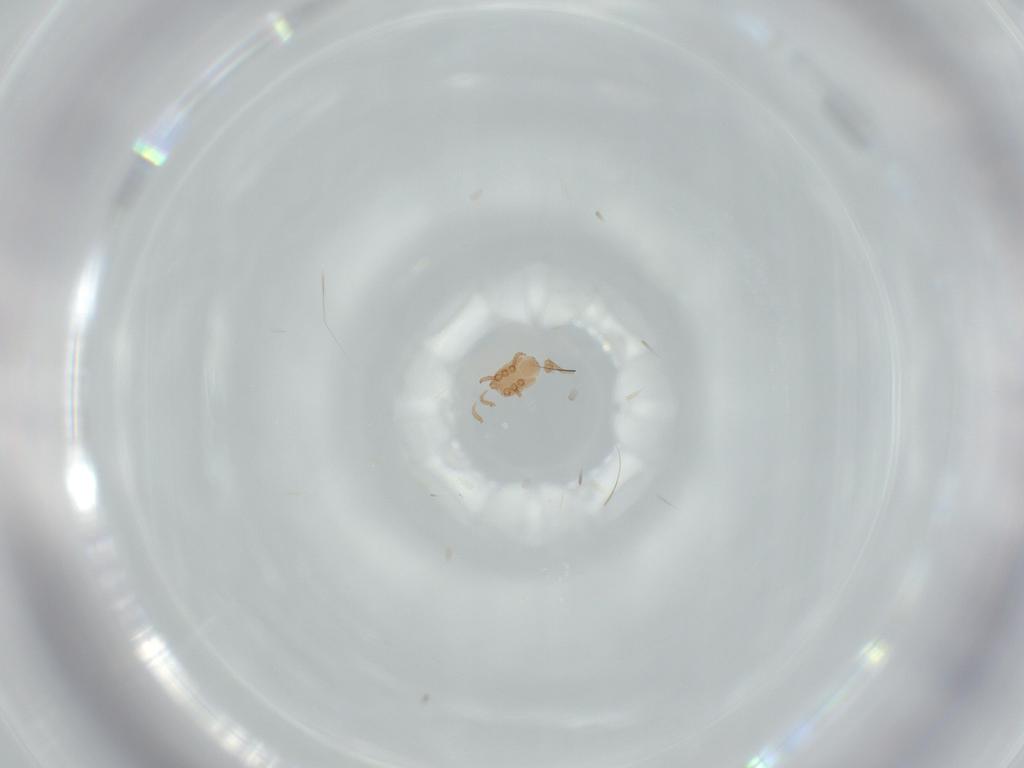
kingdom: Animalia
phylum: Arthropoda
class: Arachnida
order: Mesostigmata
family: Dinychidae
